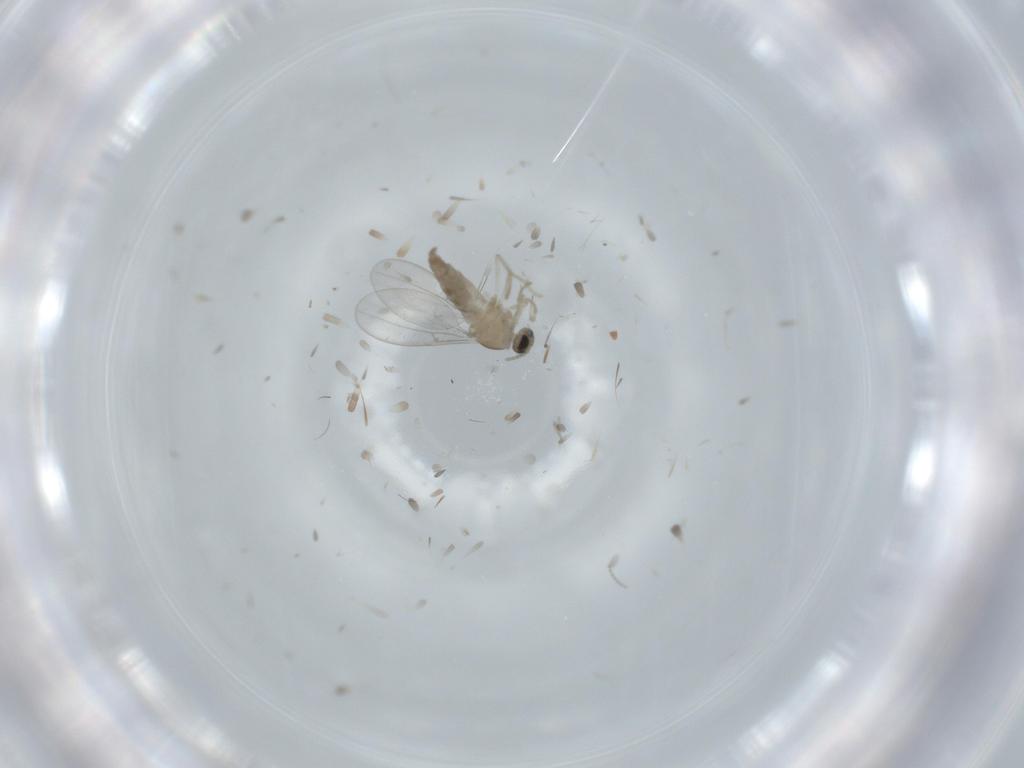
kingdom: Animalia
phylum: Arthropoda
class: Insecta
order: Diptera
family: Cecidomyiidae
